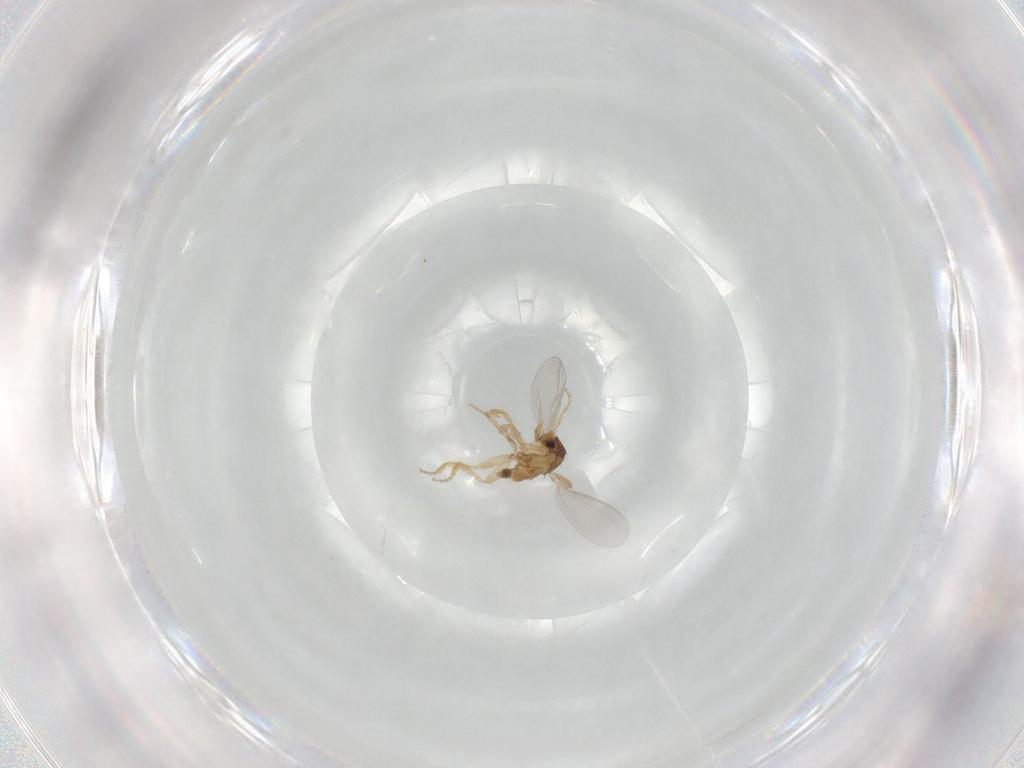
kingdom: Animalia
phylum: Arthropoda
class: Insecta
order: Diptera
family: Phoridae
